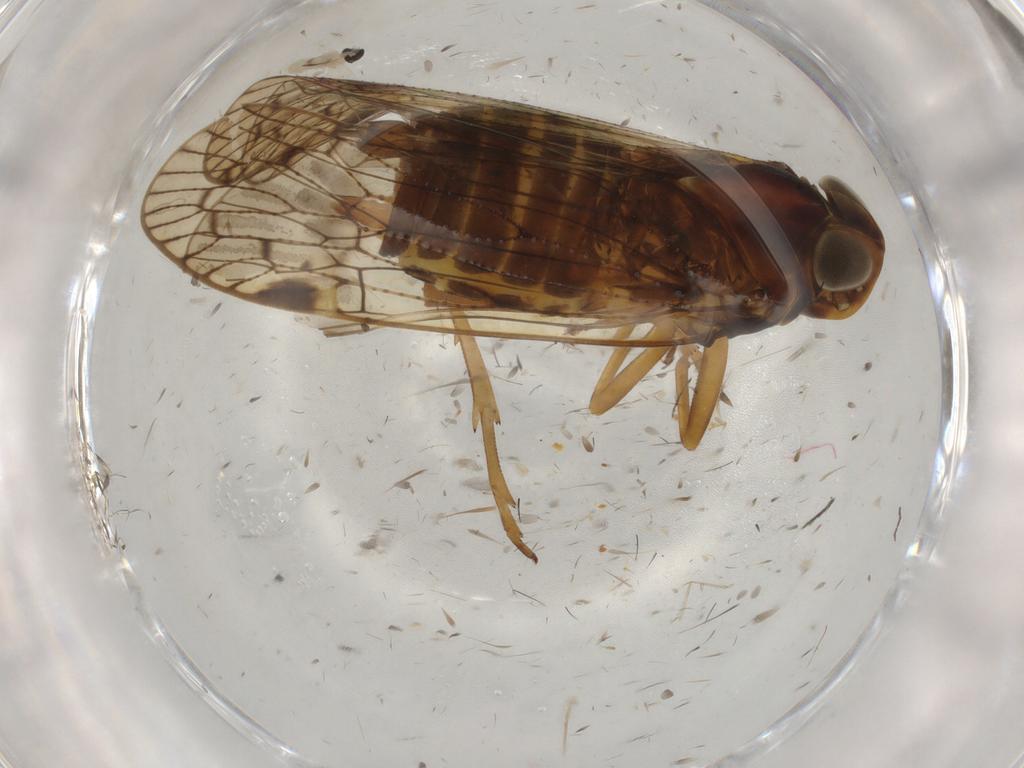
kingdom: Animalia
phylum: Arthropoda
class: Insecta
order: Hemiptera
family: Cixiidae
